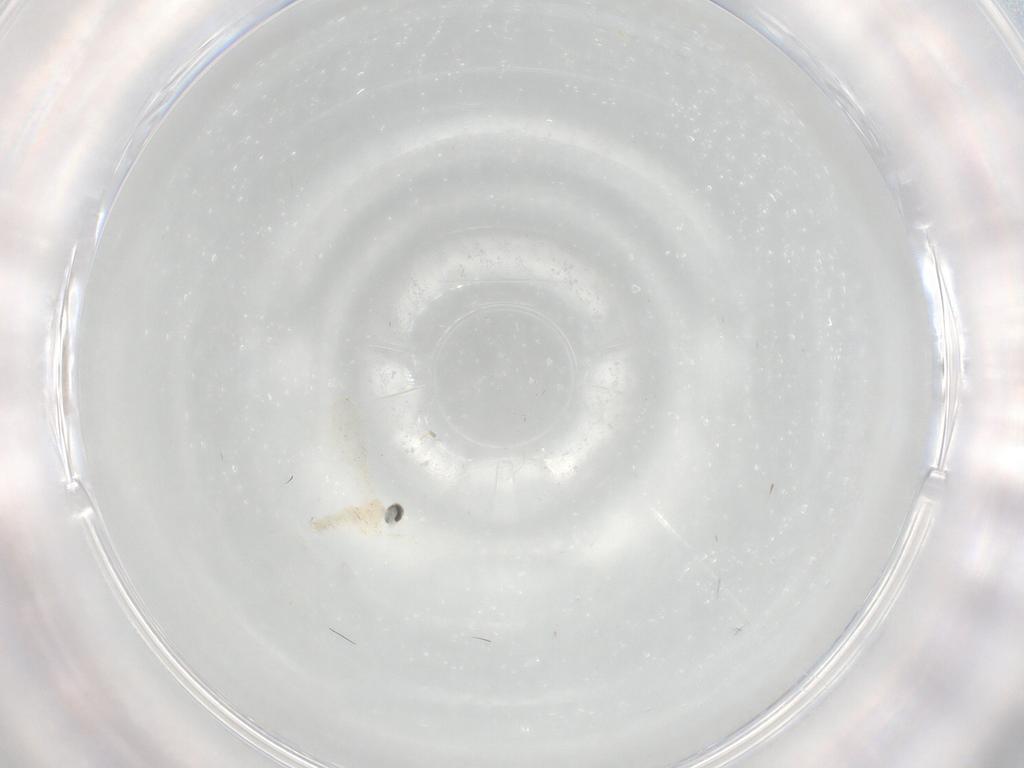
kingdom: Animalia
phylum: Arthropoda
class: Insecta
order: Diptera
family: Cecidomyiidae
